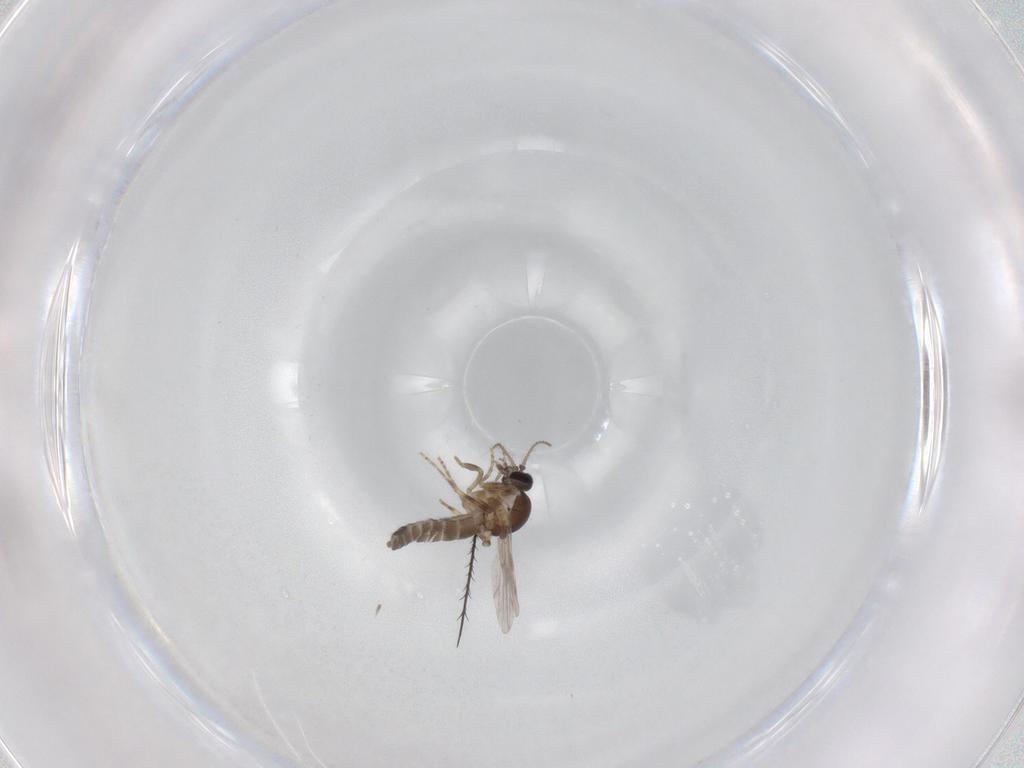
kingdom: Animalia
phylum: Arthropoda
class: Insecta
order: Diptera
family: Ceratopogonidae
